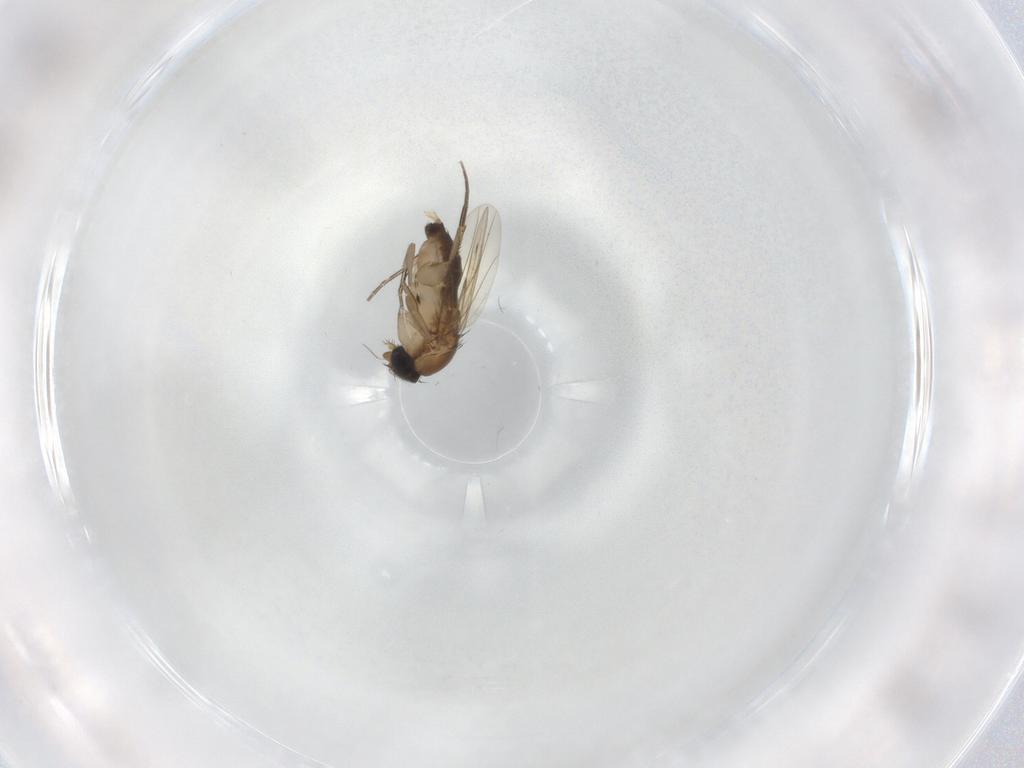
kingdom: Animalia
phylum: Arthropoda
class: Insecta
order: Diptera
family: Phoridae
